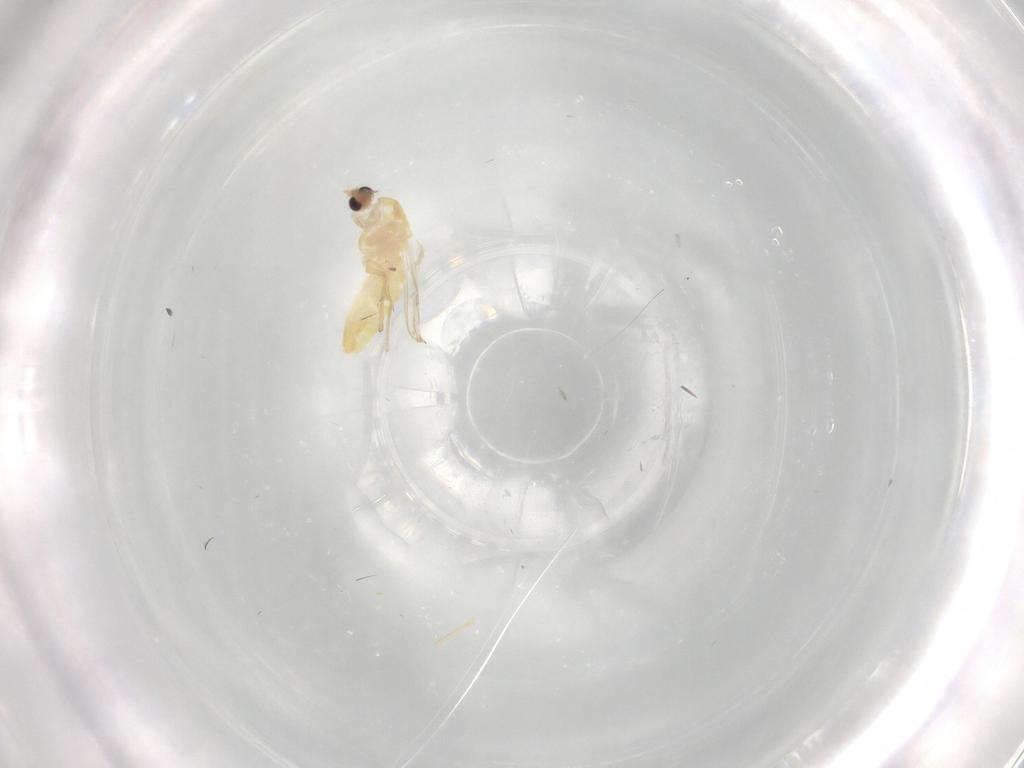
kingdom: Animalia
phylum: Arthropoda
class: Insecta
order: Diptera
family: Chironomidae
